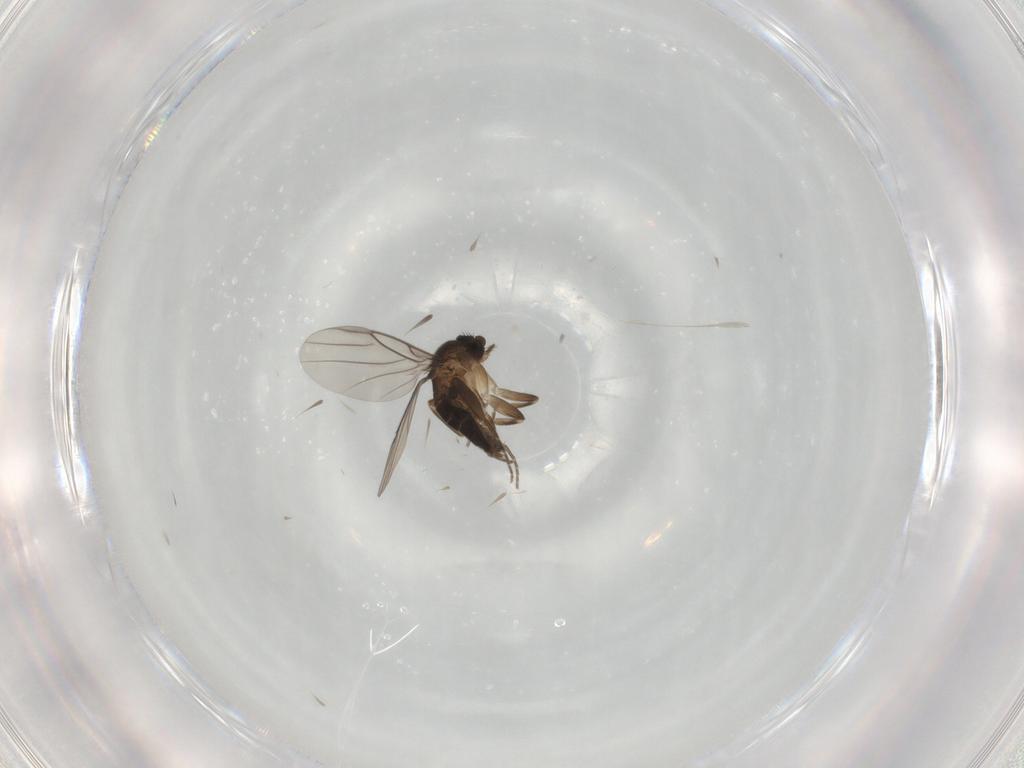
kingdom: Animalia
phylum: Arthropoda
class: Insecta
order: Diptera
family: Phoridae
